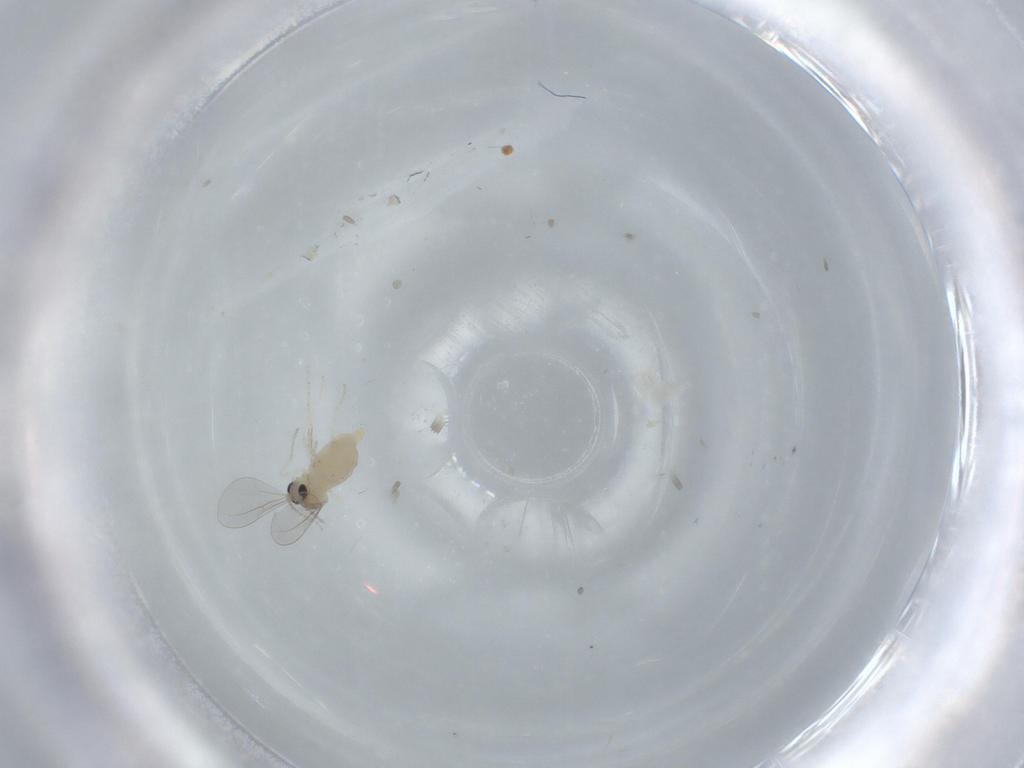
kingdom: Animalia
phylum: Arthropoda
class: Insecta
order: Diptera
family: Cecidomyiidae
